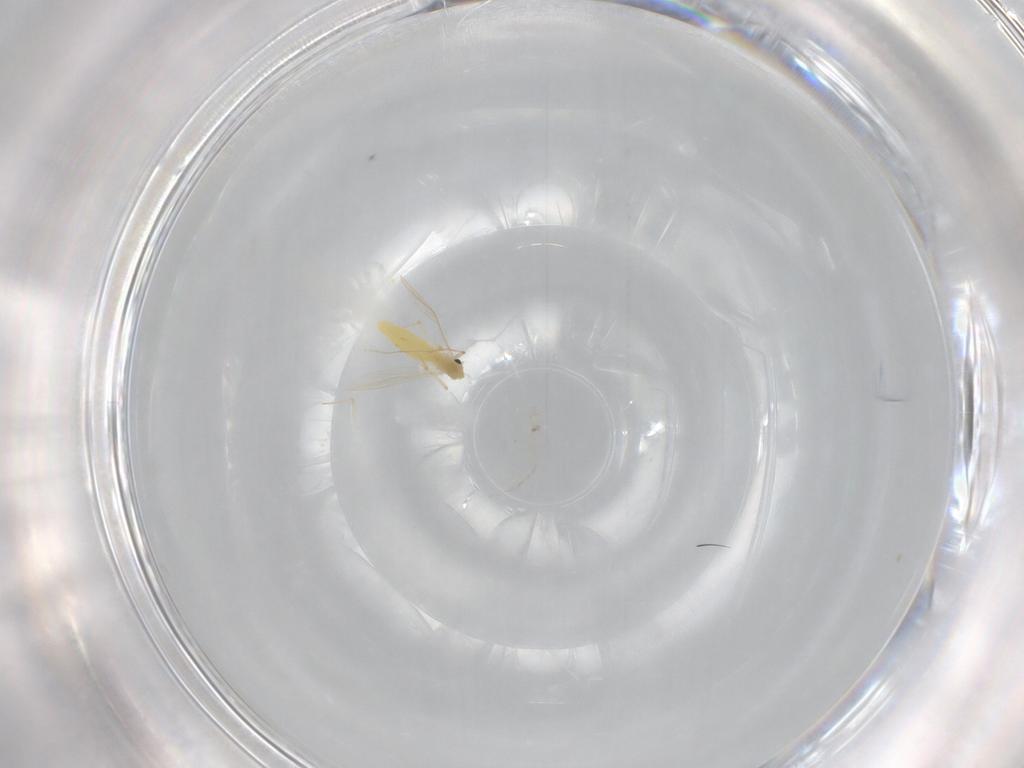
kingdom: Animalia
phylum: Arthropoda
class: Insecta
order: Diptera
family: Chironomidae
